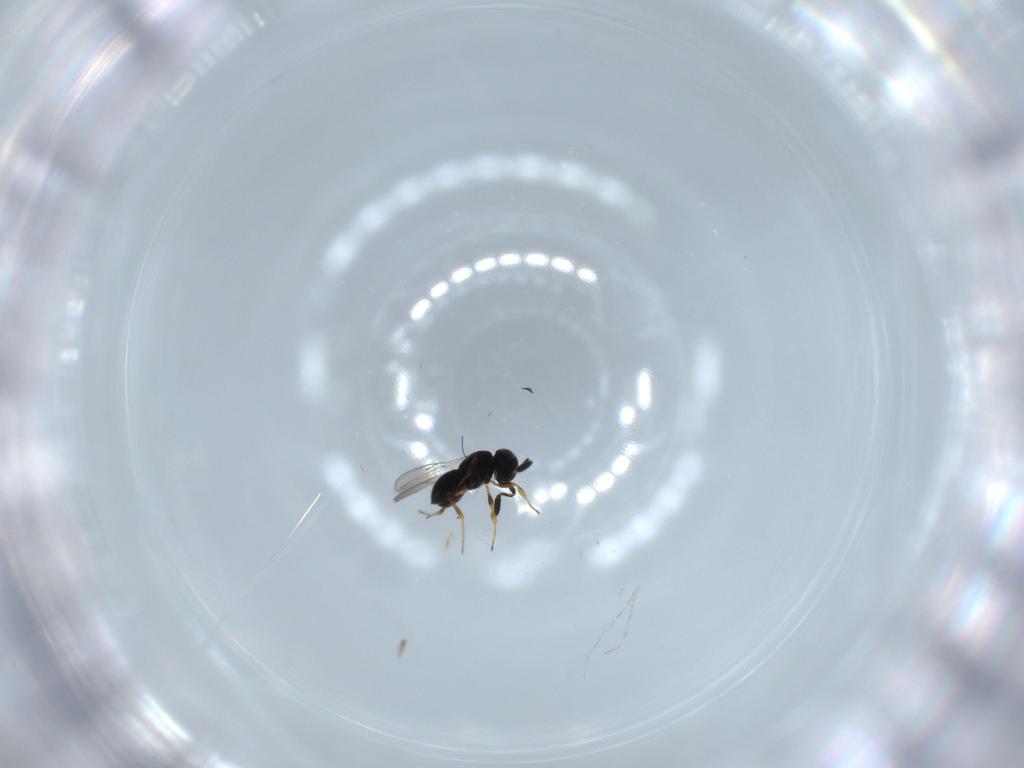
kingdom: Animalia
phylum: Arthropoda
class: Insecta
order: Hymenoptera
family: Scelionidae
